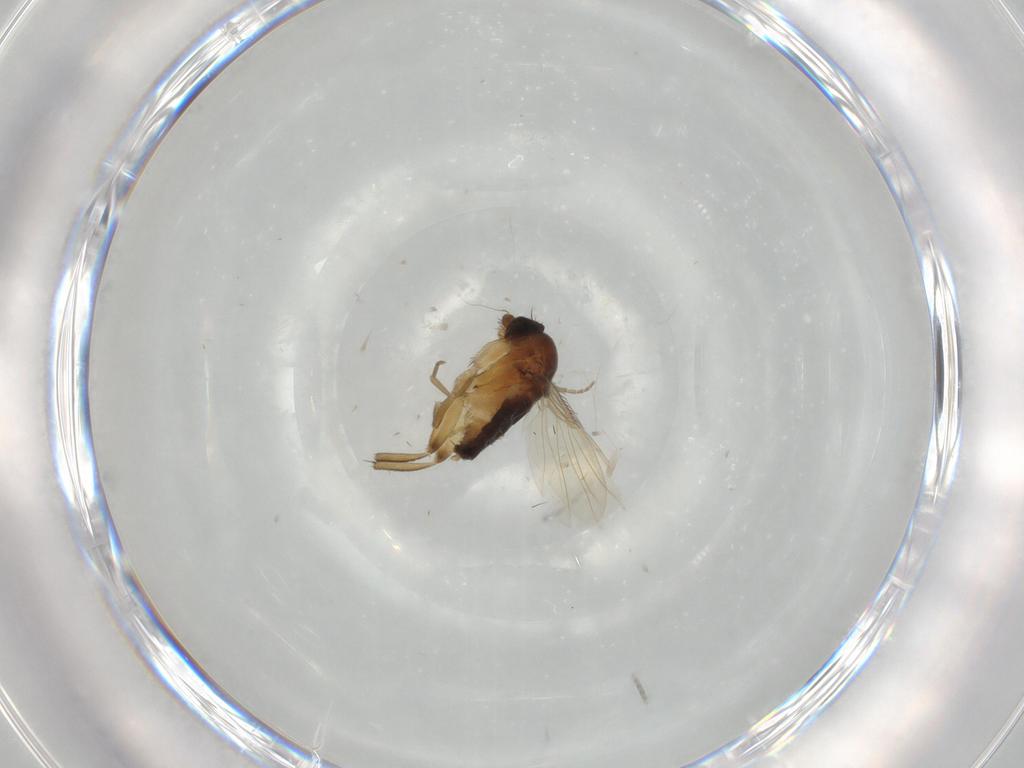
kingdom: Animalia
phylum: Arthropoda
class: Insecta
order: Diptera
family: Phoridae
